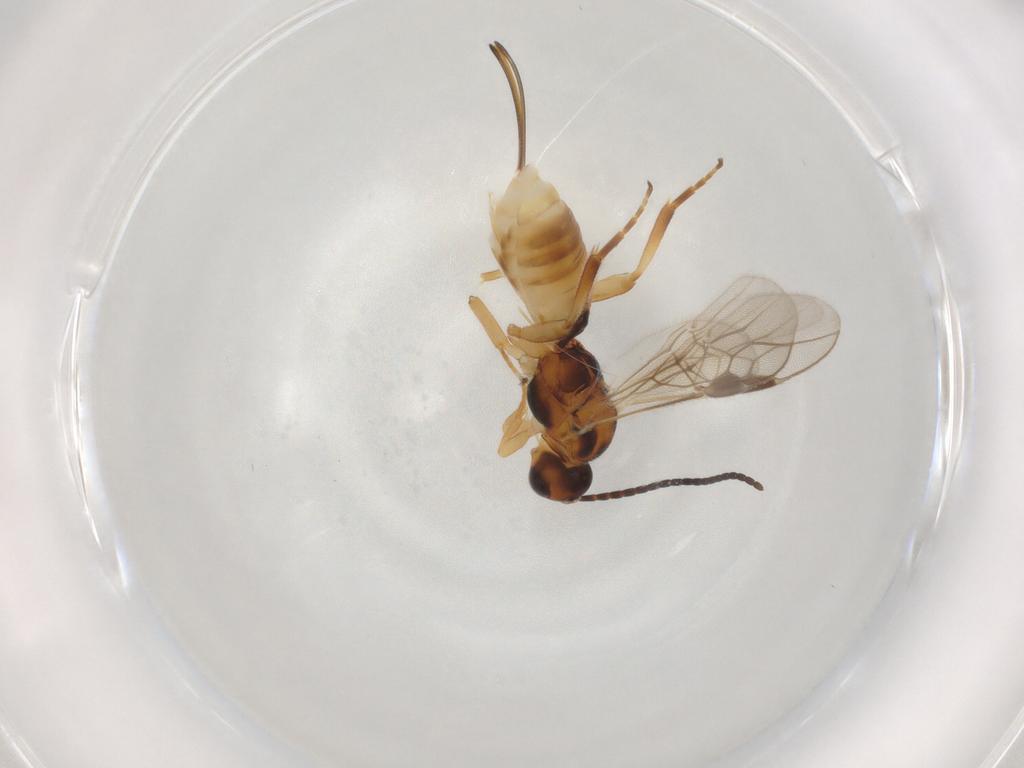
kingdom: Animalia
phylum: Arthropoda
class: Insecta
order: Hymenoptera
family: Braconidae
